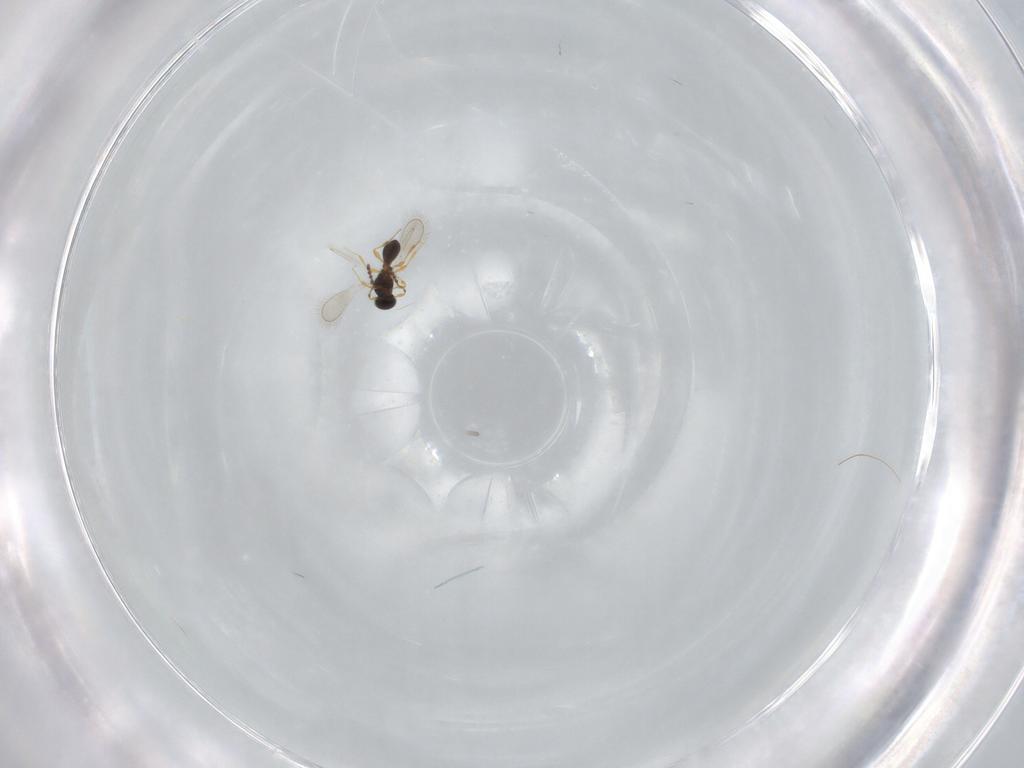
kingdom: Animalia
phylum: Arthropoda
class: Insecta
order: Hymenoptera
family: Platygastridae
